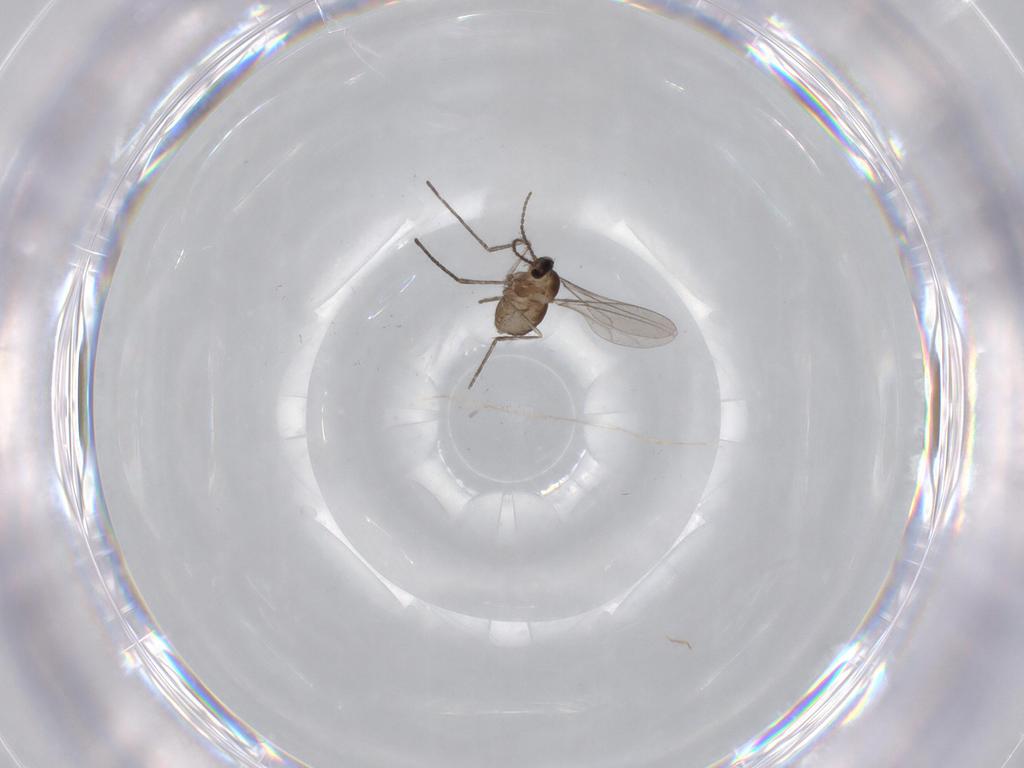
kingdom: Animalia
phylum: Arthropoda
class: Insecta
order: Diptera
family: Cecidomyiidae
